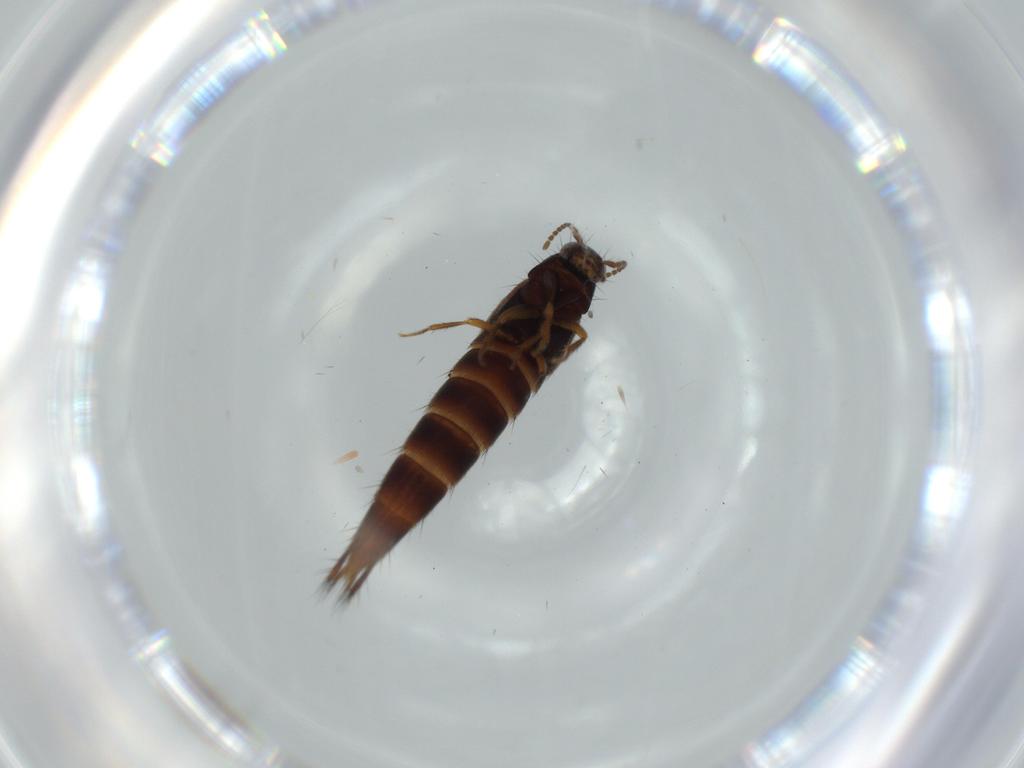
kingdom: Animalia
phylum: Arthropoda
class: Insecta
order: Coleoptera
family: Staphylinidae
